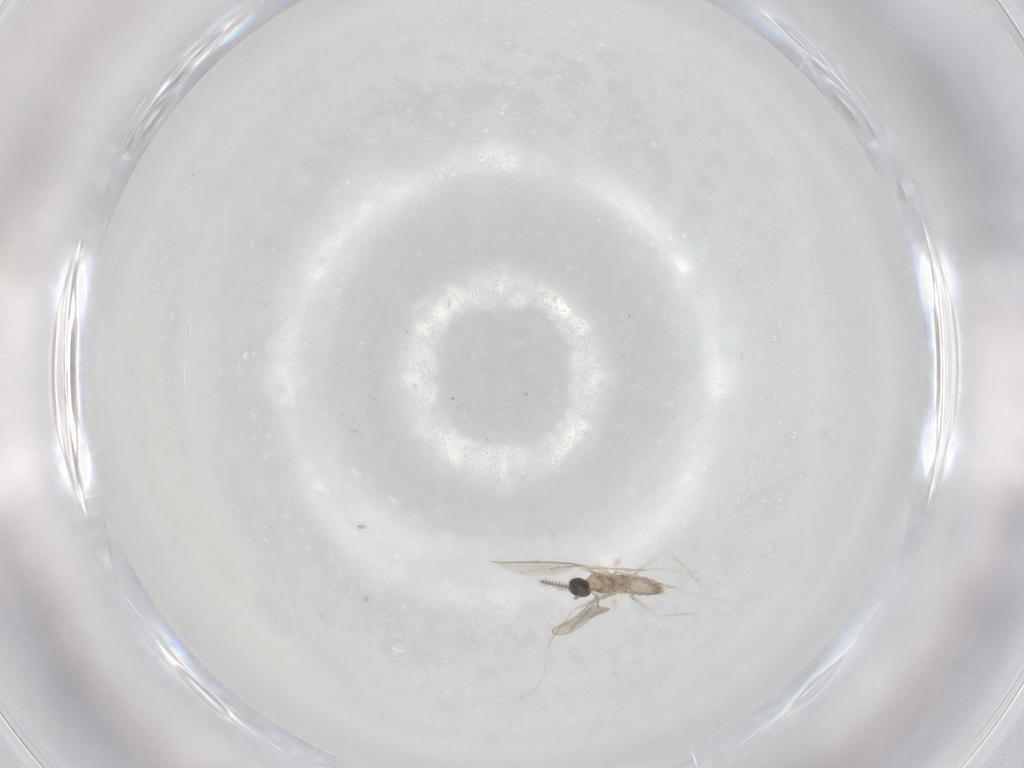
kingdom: Animalia
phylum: Arthropoda
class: Insecta
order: Diptera
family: Cecidomyiidae
